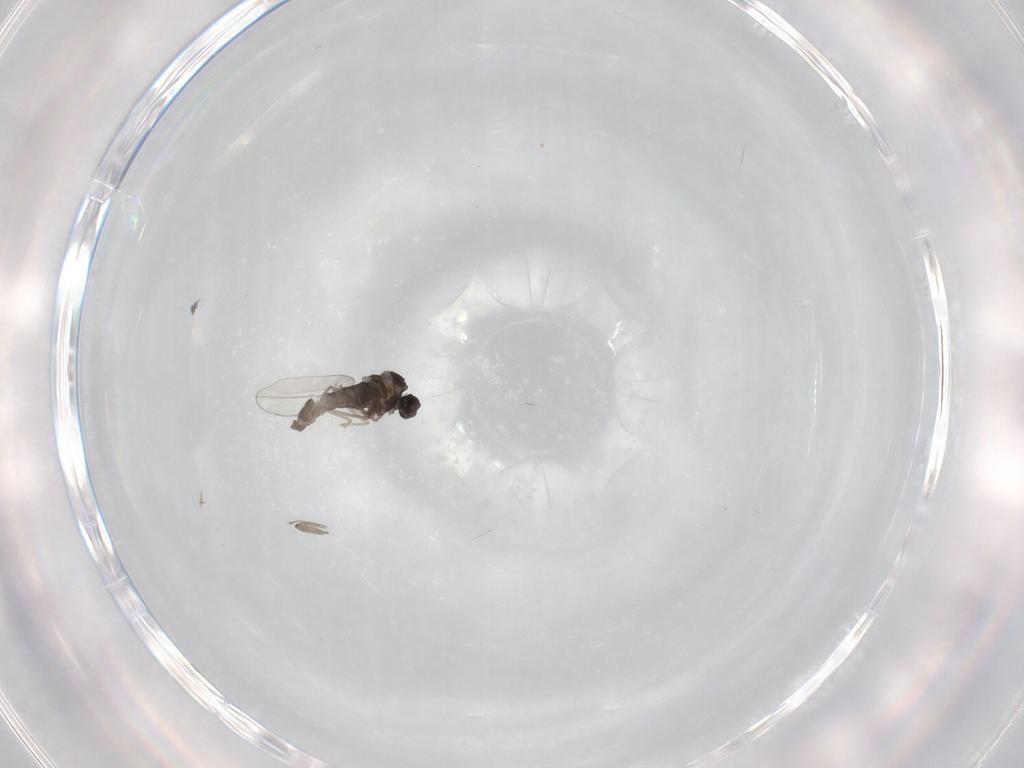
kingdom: Animalia
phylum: Arthropoda
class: Insecta
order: Diptera
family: Cecidomyiidae
